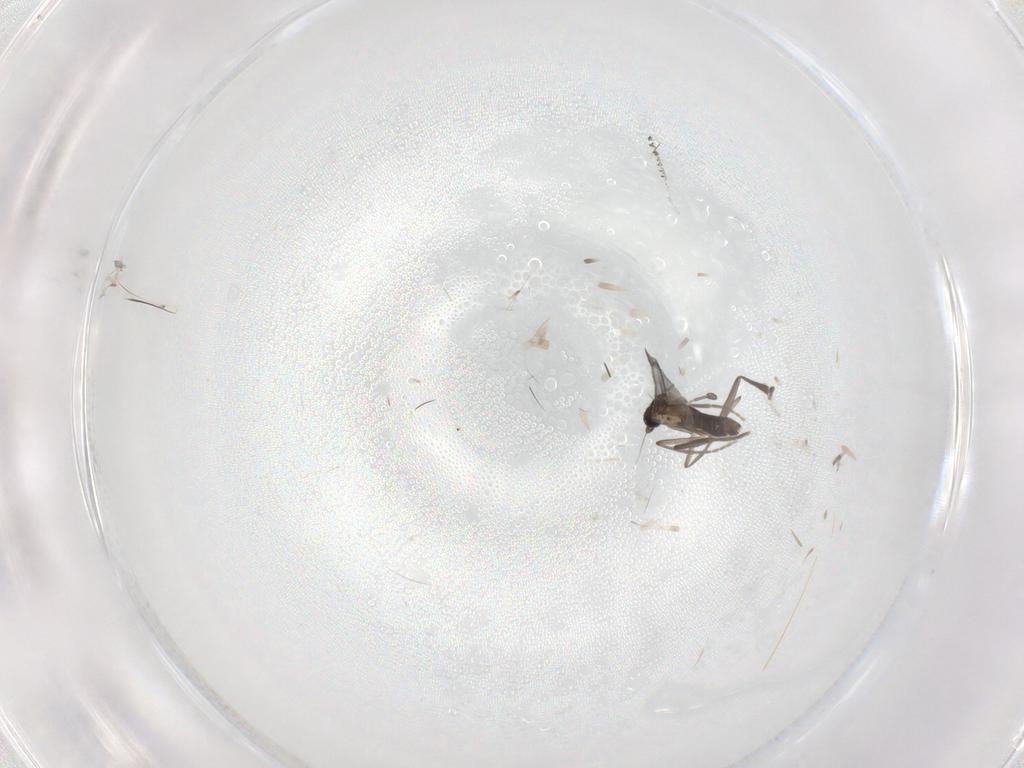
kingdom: Animalia
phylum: Arthropoda
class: Insecta
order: Diptera
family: Phoridae
